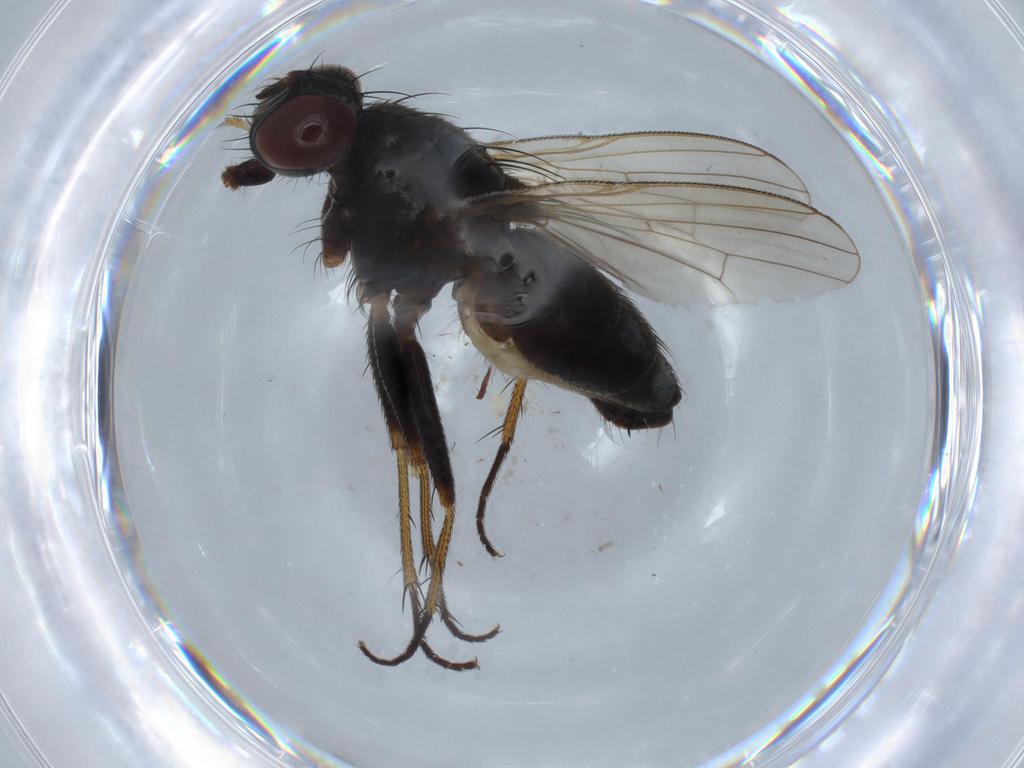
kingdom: Animalia
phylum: Arthropoda
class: Insecta
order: Diptera
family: Muscidae
